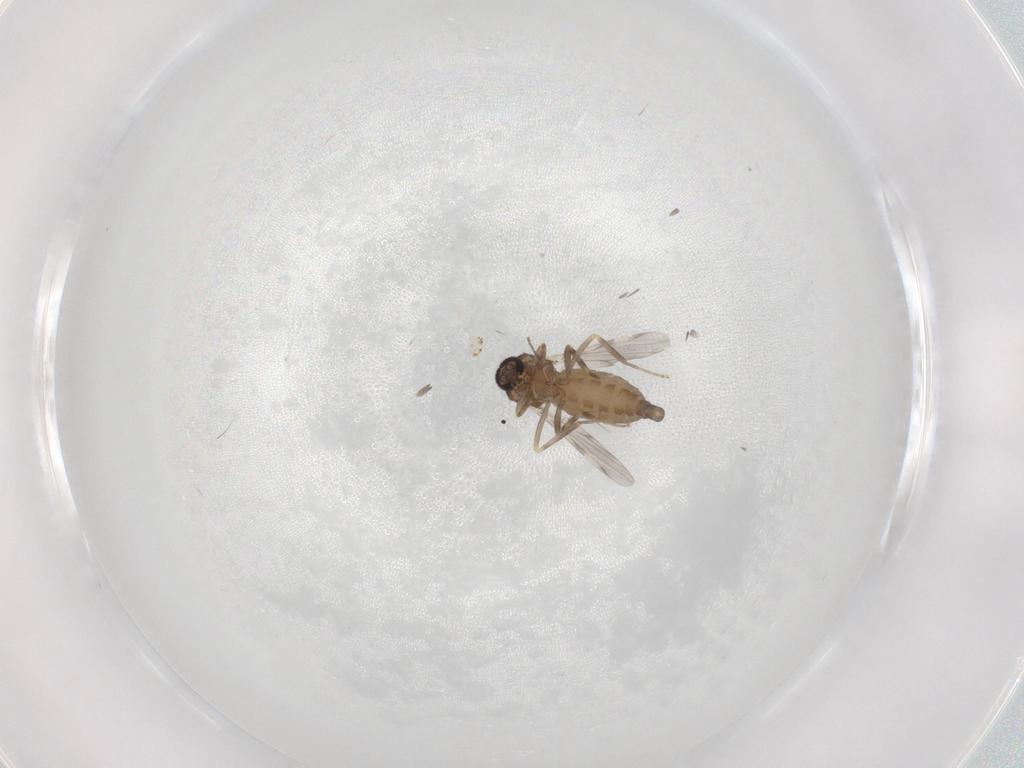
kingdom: Animalia
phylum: Arthropoda
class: Insecta
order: Diptera
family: Ceratopogonidae
